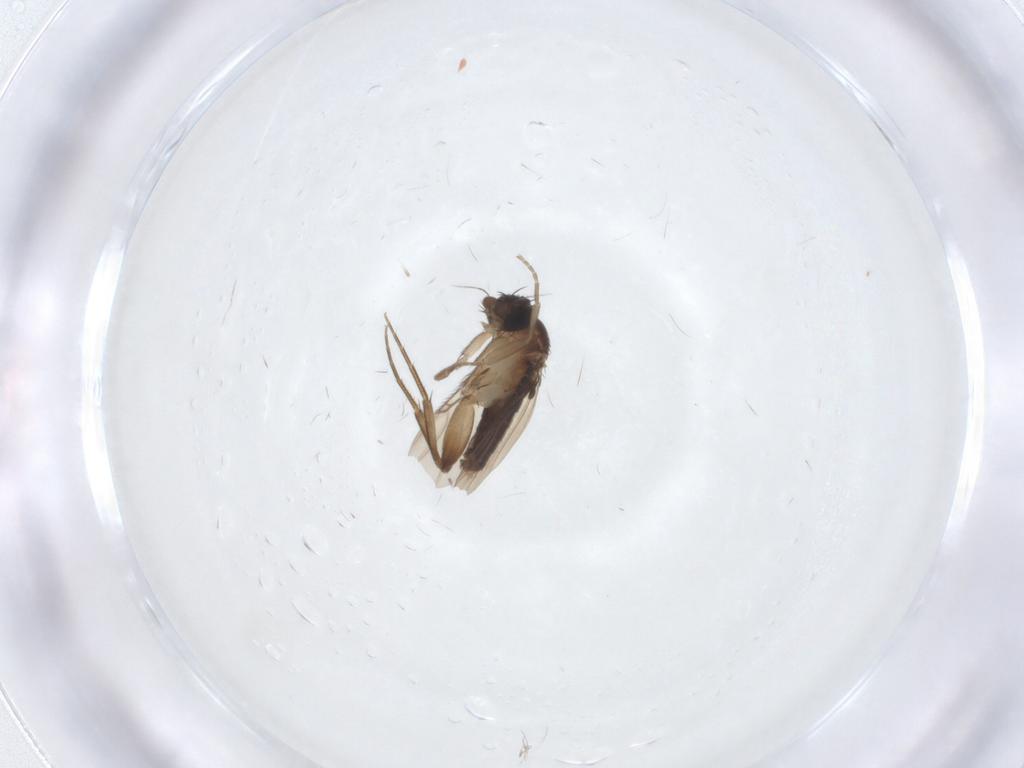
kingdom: Animalia
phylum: Arthropoda
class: Insecta
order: Diptera
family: Phoridae
